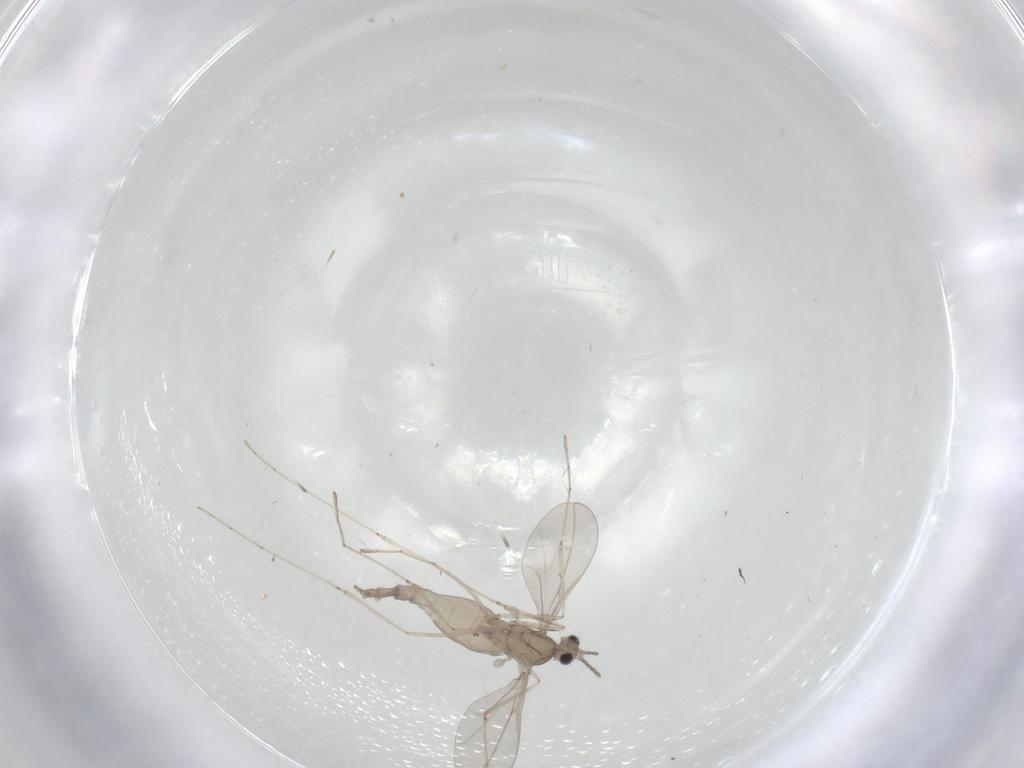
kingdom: Animalia
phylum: Arthropoda
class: Insecta
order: Diptera
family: Cecidomyiidae
